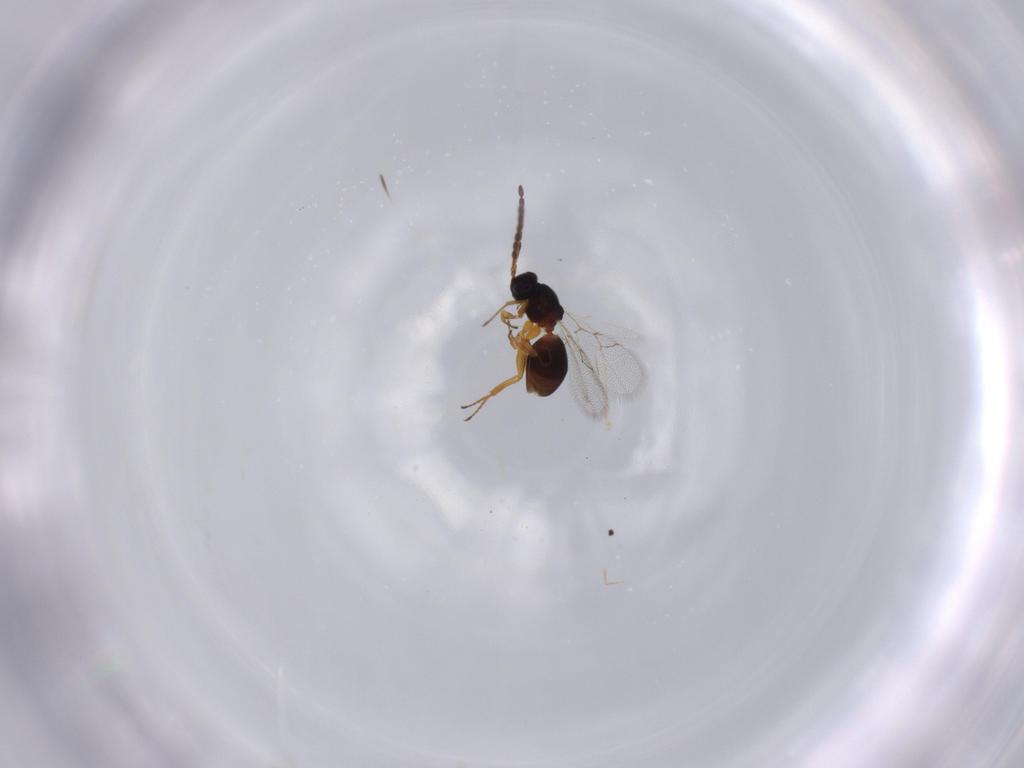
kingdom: Animalia
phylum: Arthropoda
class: Insecta
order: Hymenoptera
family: Figitidae
